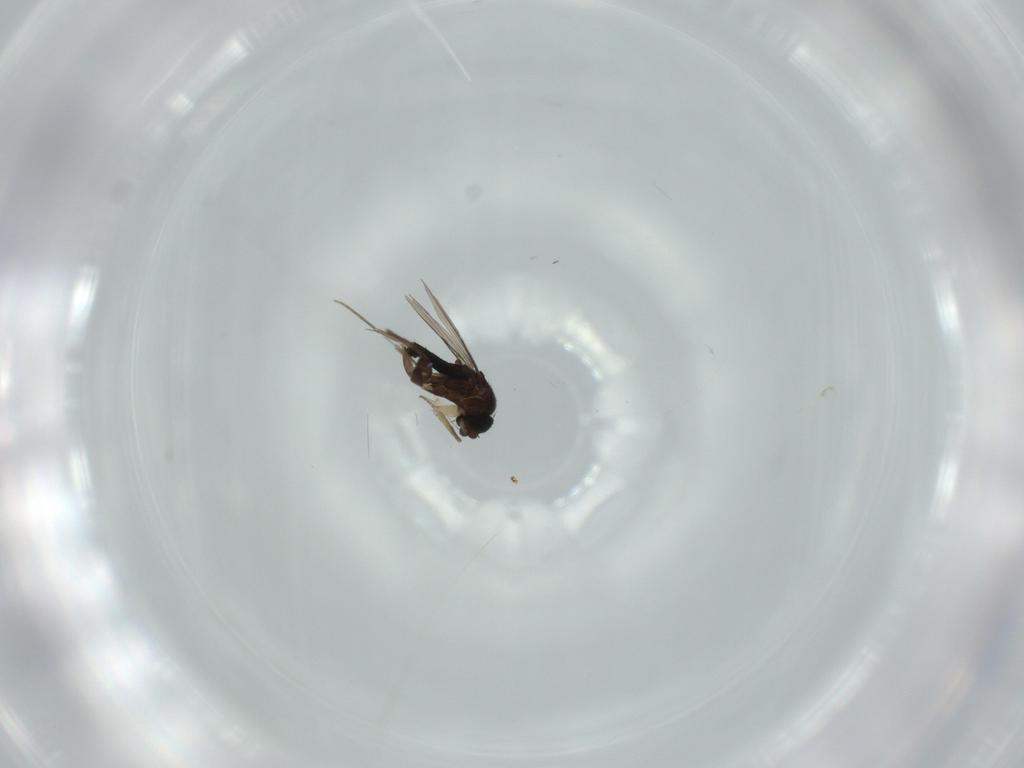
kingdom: Animalia
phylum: Arthropoda
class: Insecta
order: Diptera
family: Phoridae
